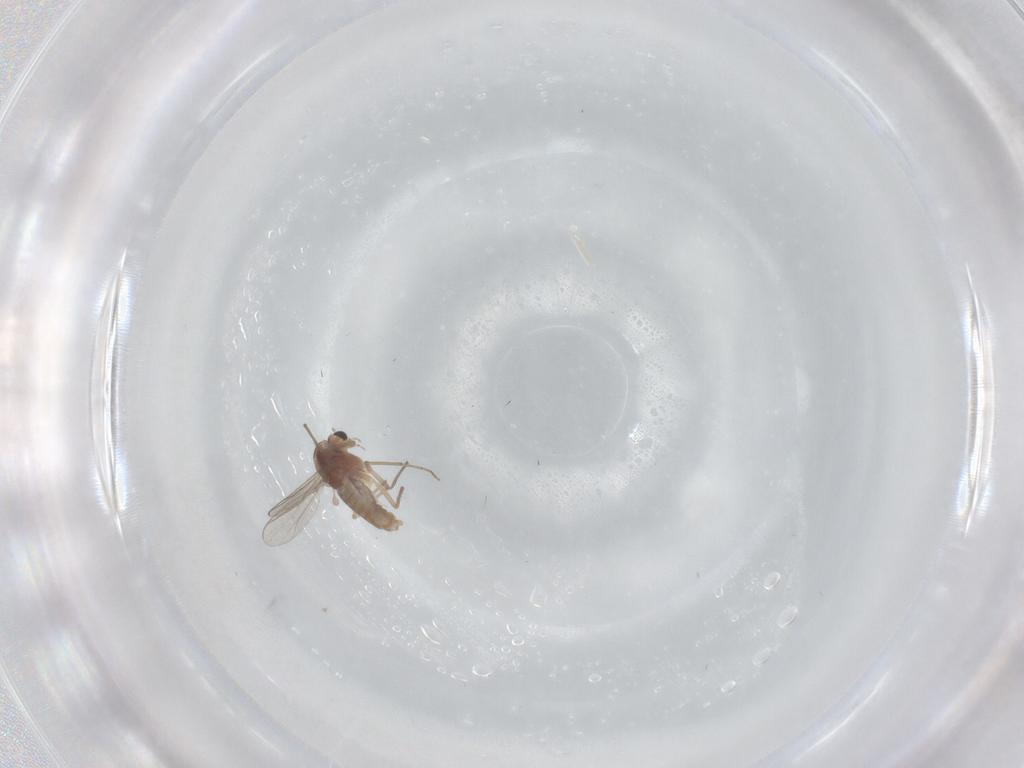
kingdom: Animalia
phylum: Arthropoda
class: Insecta
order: Diptera
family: Chironomidae
